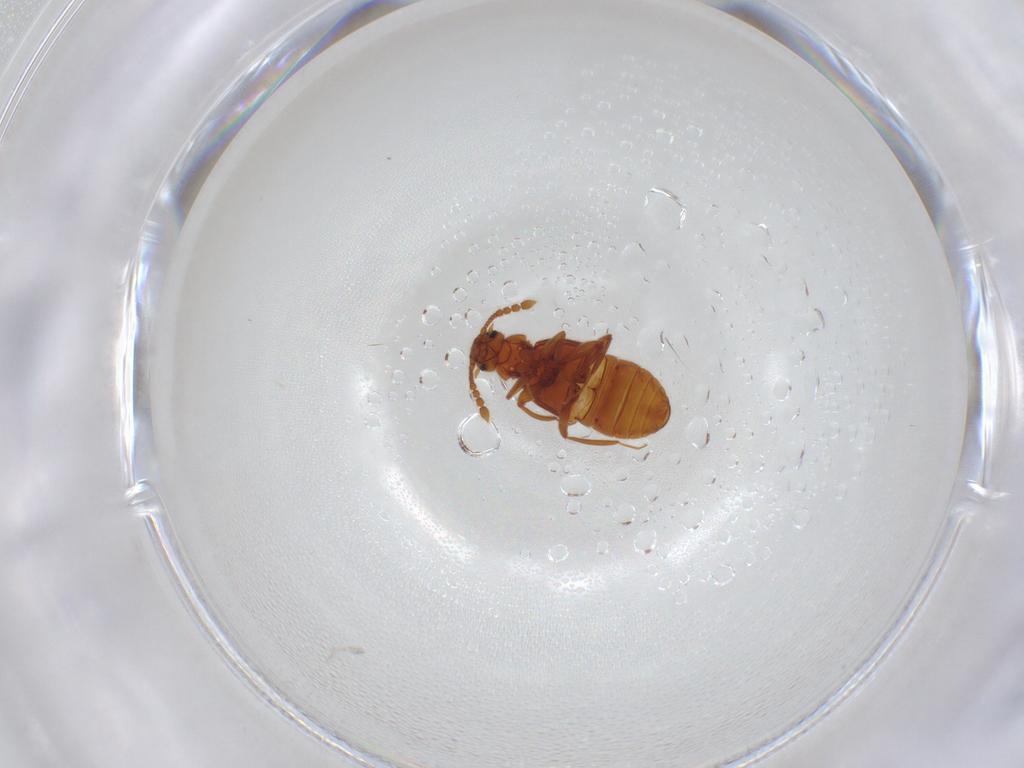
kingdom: Animalia
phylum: Arthropoda
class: Insecta
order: Coleoptera
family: Staphylinidae
